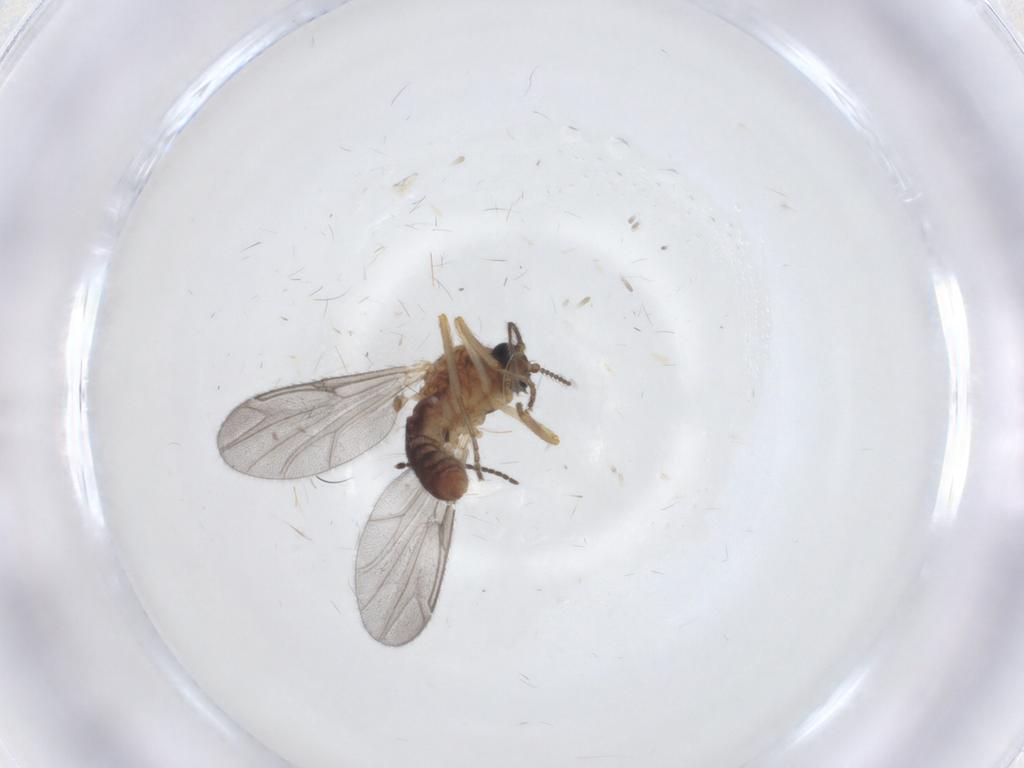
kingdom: Animalia
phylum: Arthropoda
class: Insecta
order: Diptera
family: Ceratopogonidae
